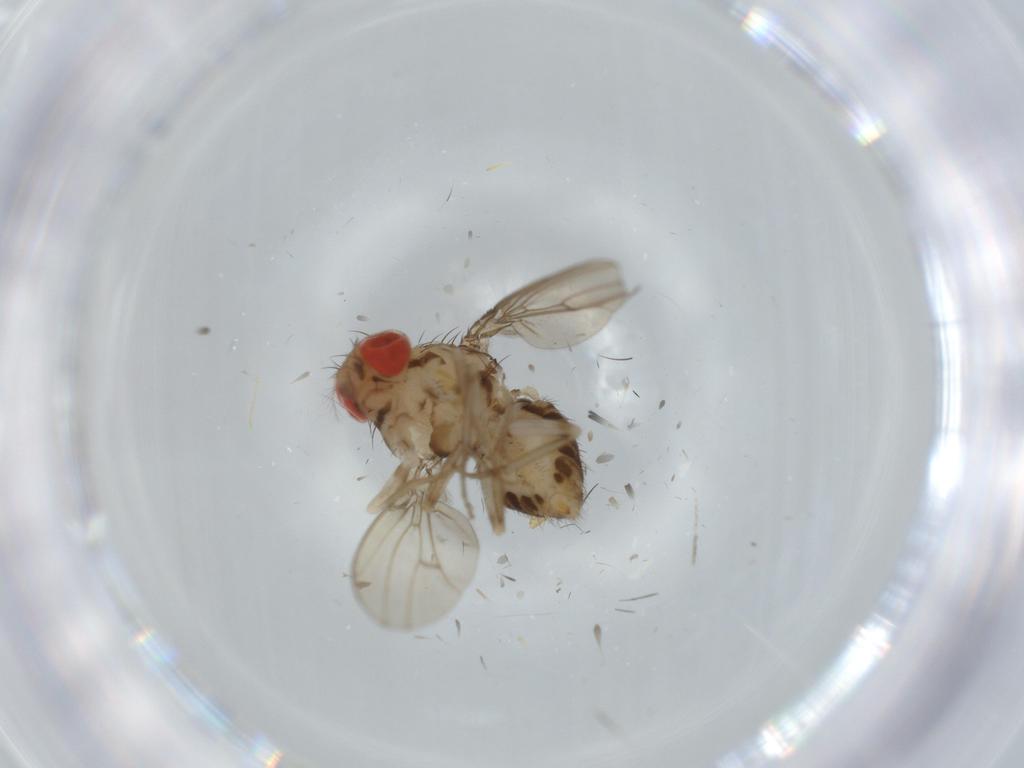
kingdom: Animalia
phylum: Arthropoda
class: Insecta
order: Diptera
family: Drosophilidae
